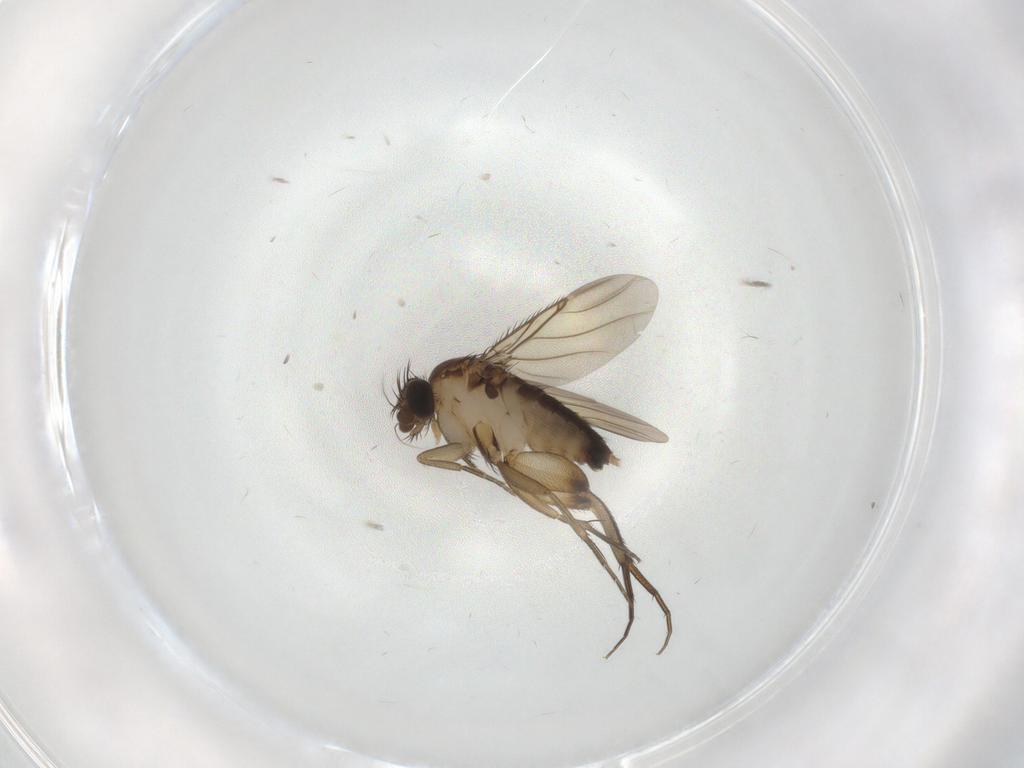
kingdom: Animalia
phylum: Arthropoda
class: Insecta
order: Diptera
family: Phoridae
